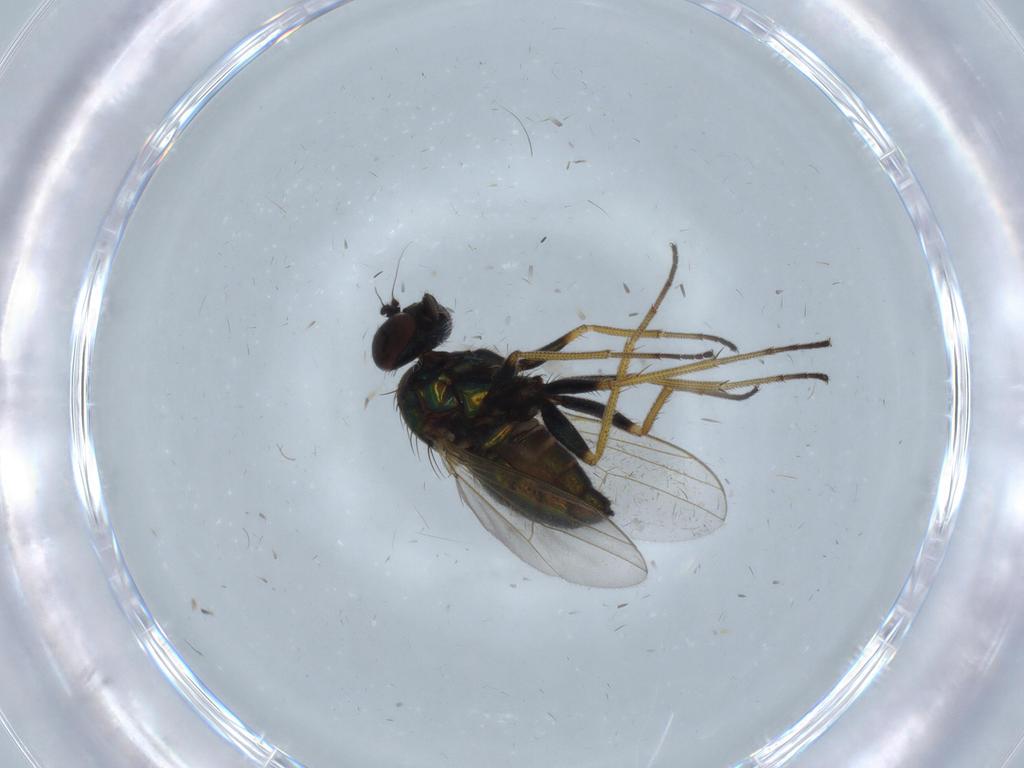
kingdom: Animalia
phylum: Arthropoda
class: Insecta
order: Diptera
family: Dolichopodidae
